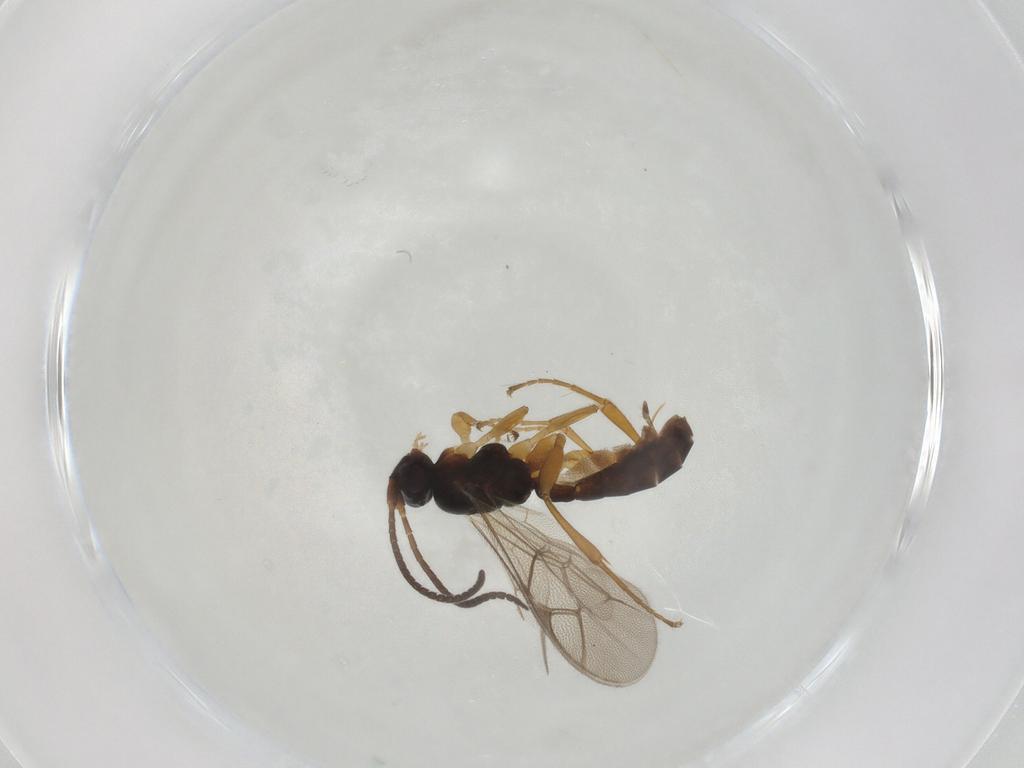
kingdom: Animalia
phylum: Arthropoda
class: Insecta
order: Hymenoptera
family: Ichneumonidae
